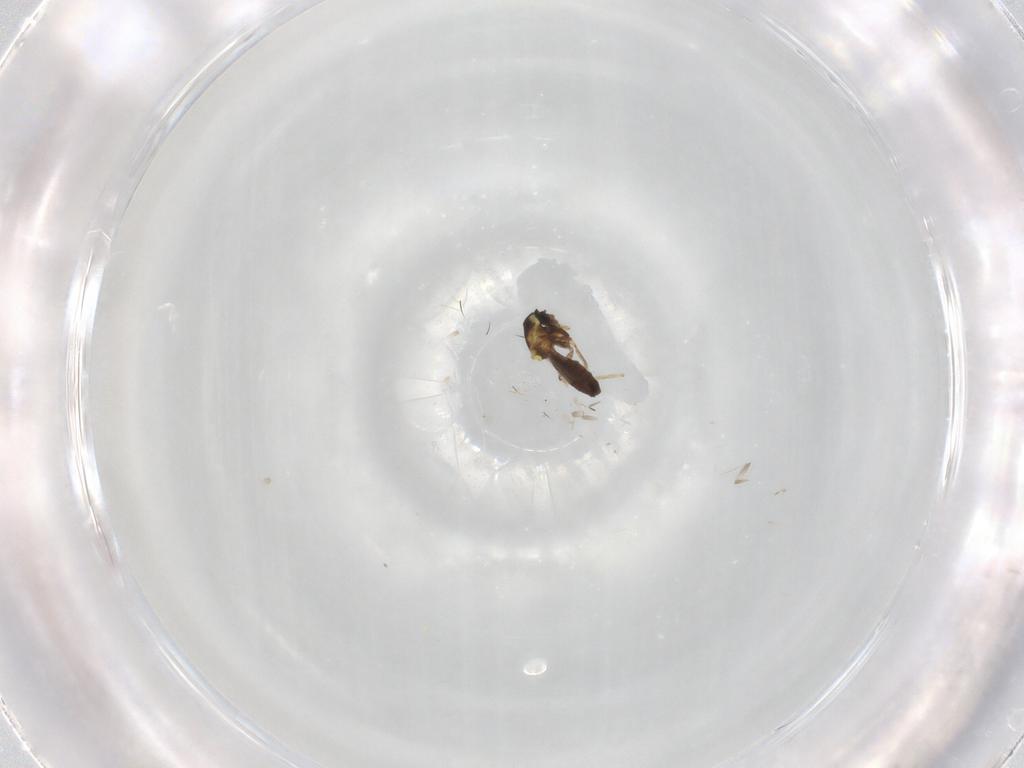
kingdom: Animalia
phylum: Arthropoda
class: Insecta
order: Diptera
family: Ceratopogonidae
